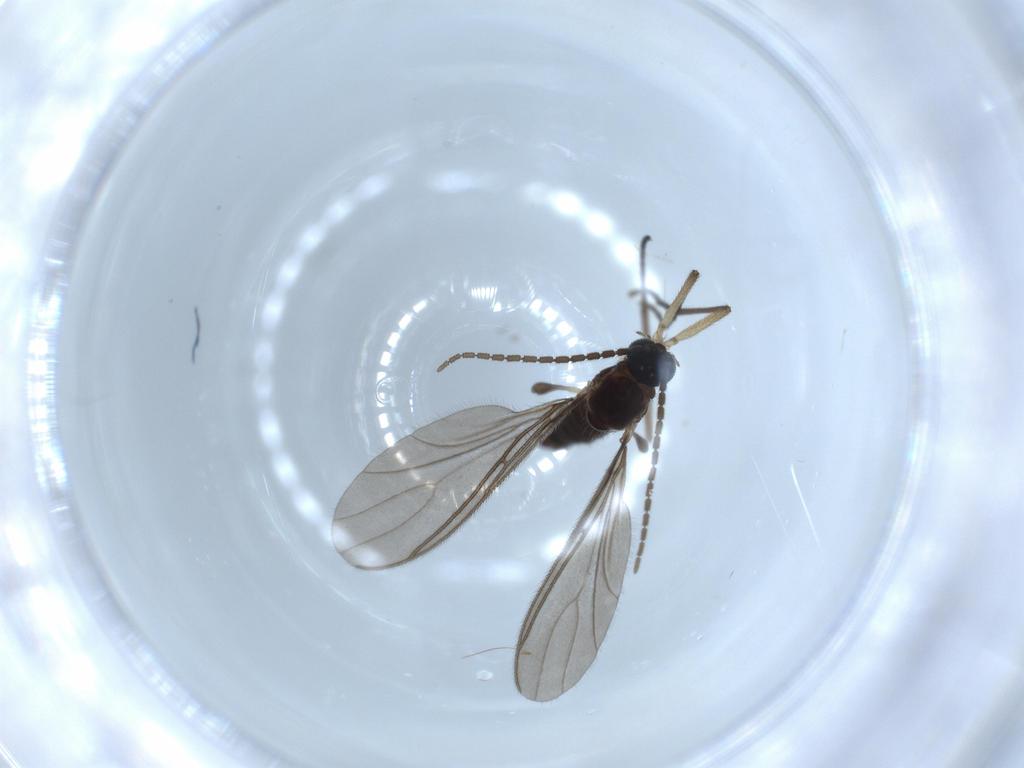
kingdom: Animalia
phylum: Arthropoda
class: Insecta
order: Diptera
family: Sciaridae
